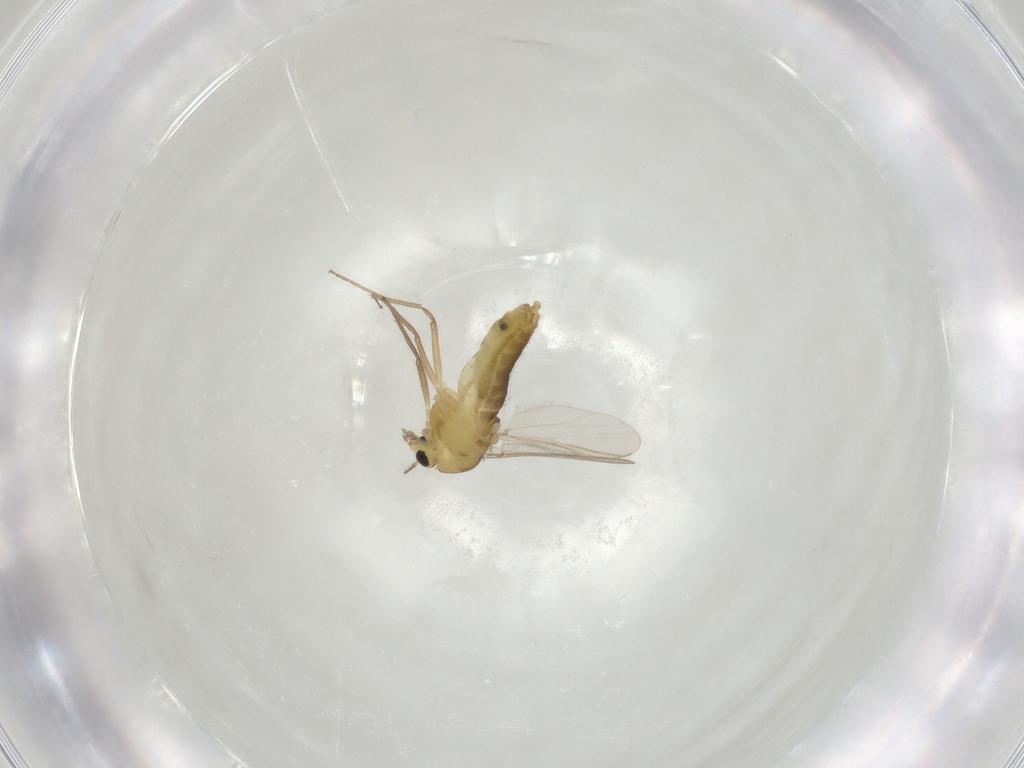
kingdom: Animalia
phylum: Arthropoda
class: Insecta
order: Diptera
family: Chironomidae
